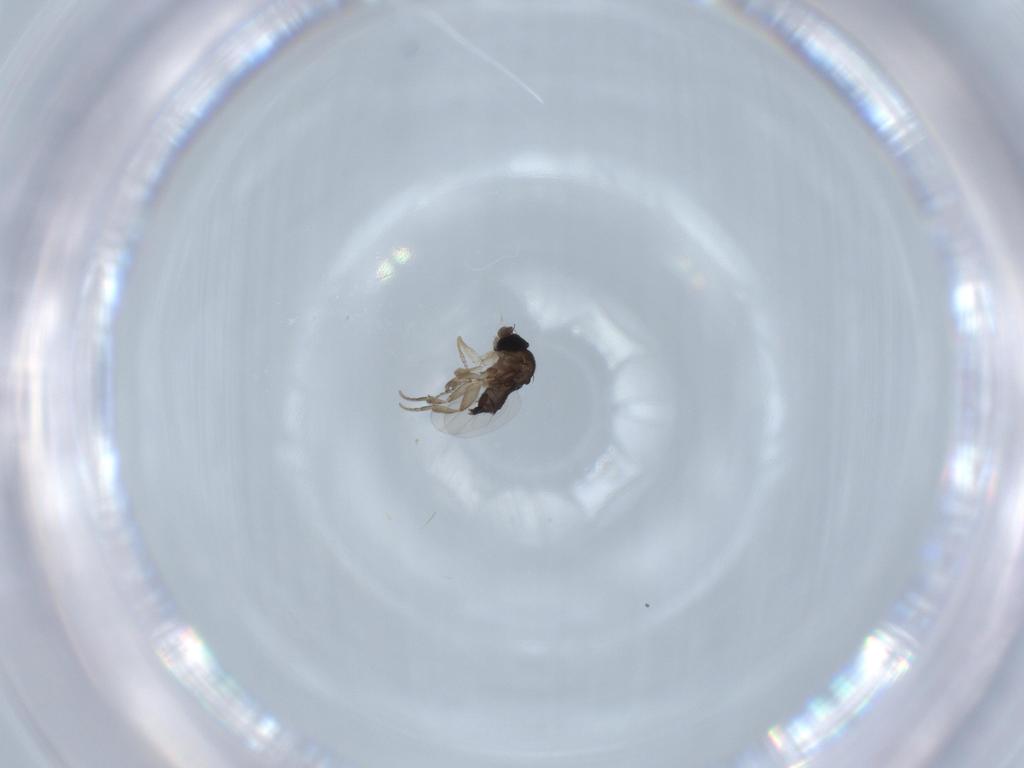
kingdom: Animalia
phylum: Arthropoda
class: Insecta
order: Diptera
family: Phoridae
